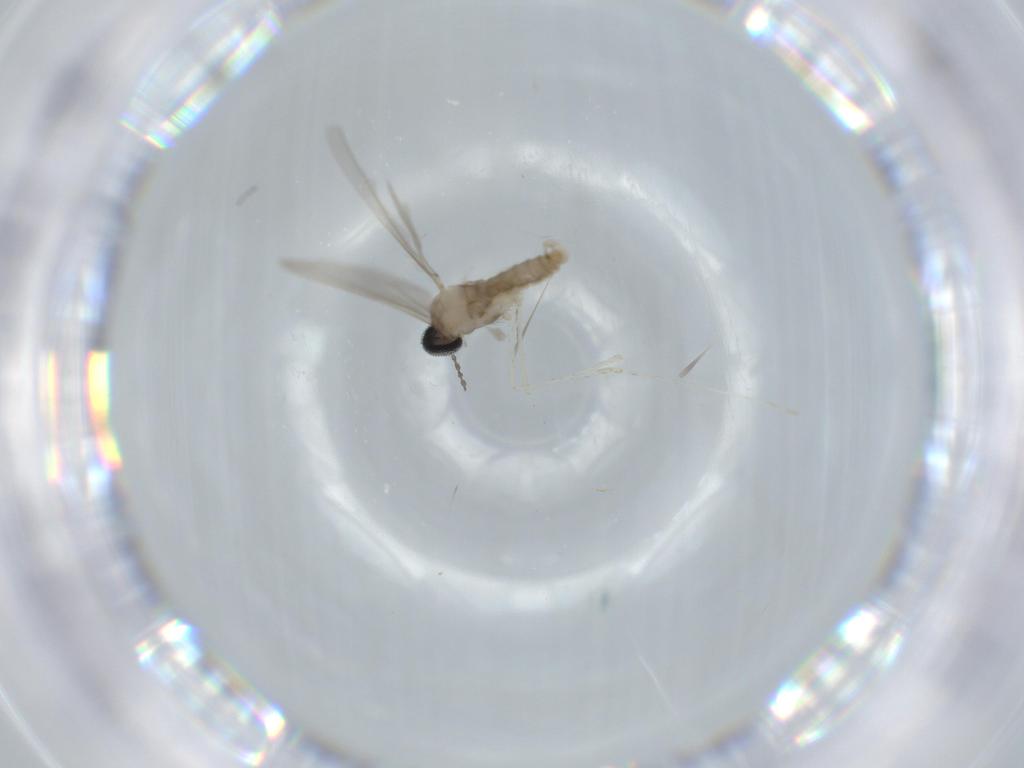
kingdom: Animalia
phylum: Arthropoda
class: Insecta
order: Diptera
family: Cecidomyiidae
